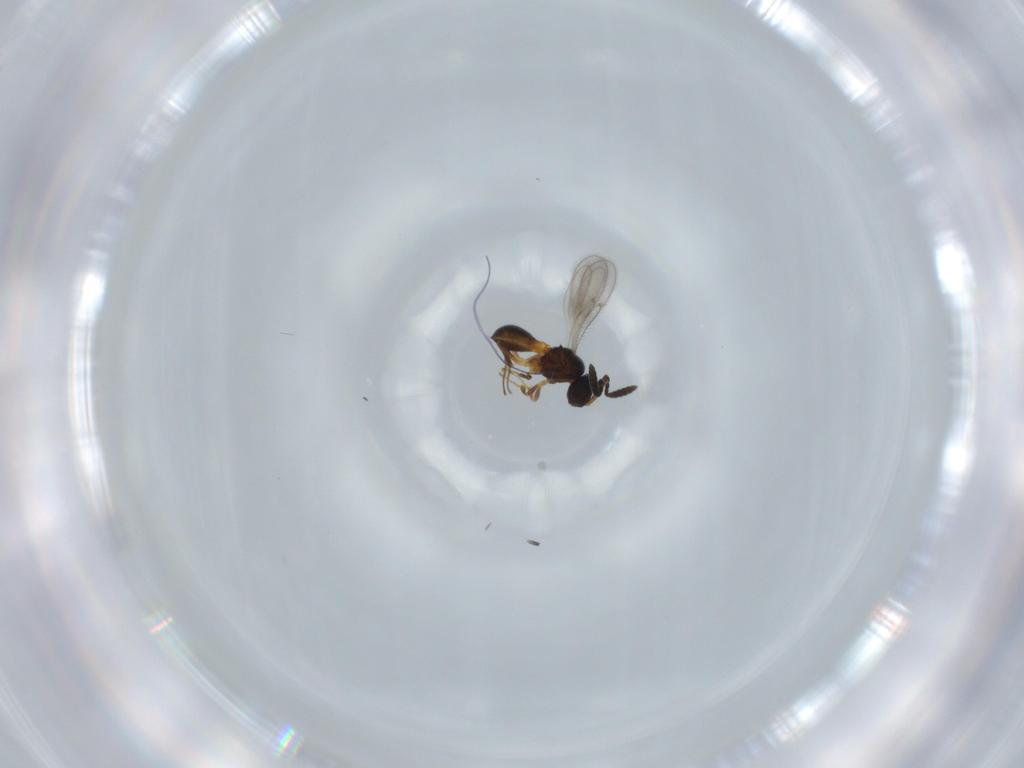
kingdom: Animalia
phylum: Arthropoda
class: Insecta
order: Hymenoptera
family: Scelionidae
